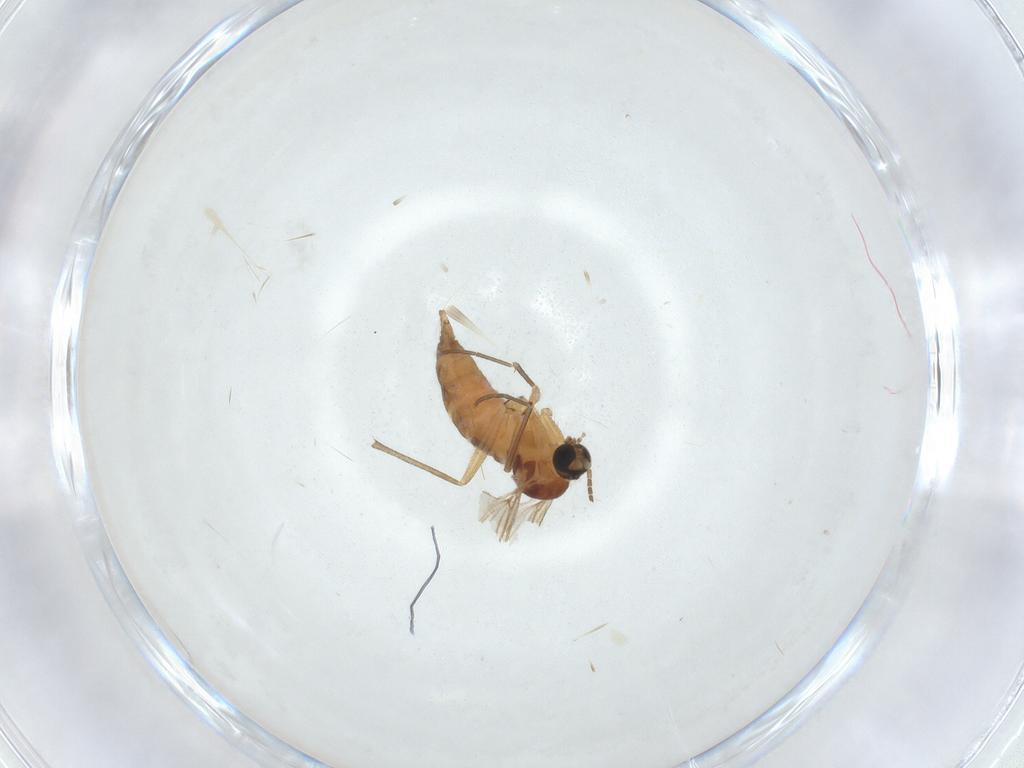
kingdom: Animalia
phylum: Arthropoda
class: Insecta
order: Diptera
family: Sciaridae
